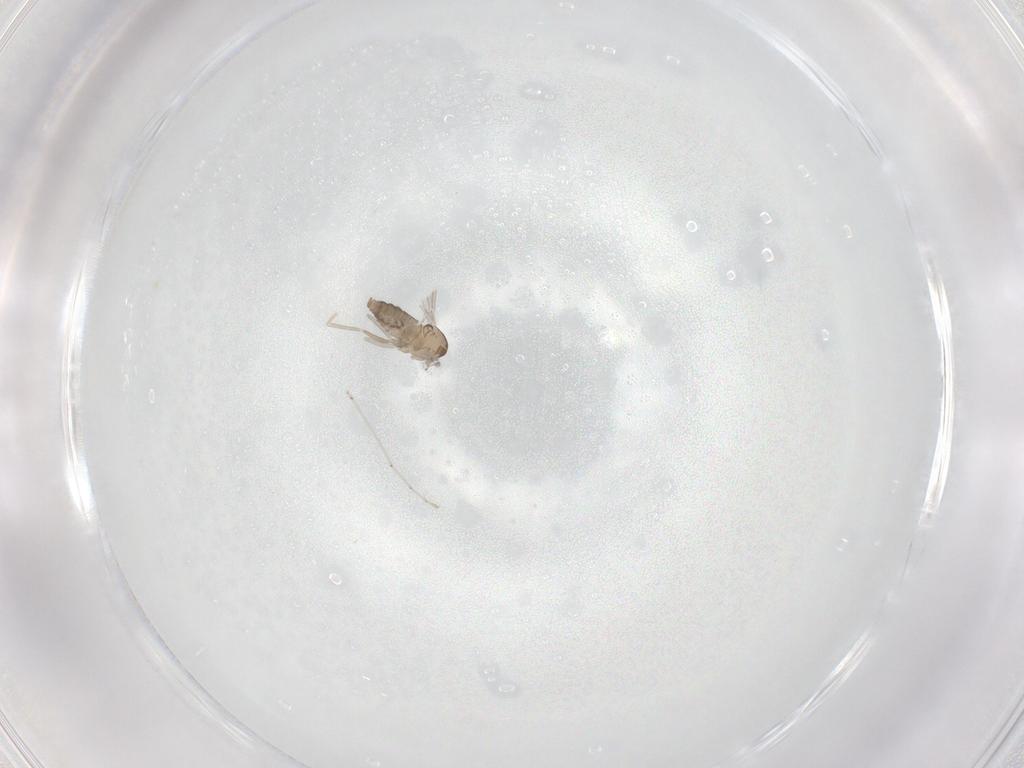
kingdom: Animalia
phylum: Arthropoda
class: Insecta
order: Diptera
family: Cecidomyiidae
